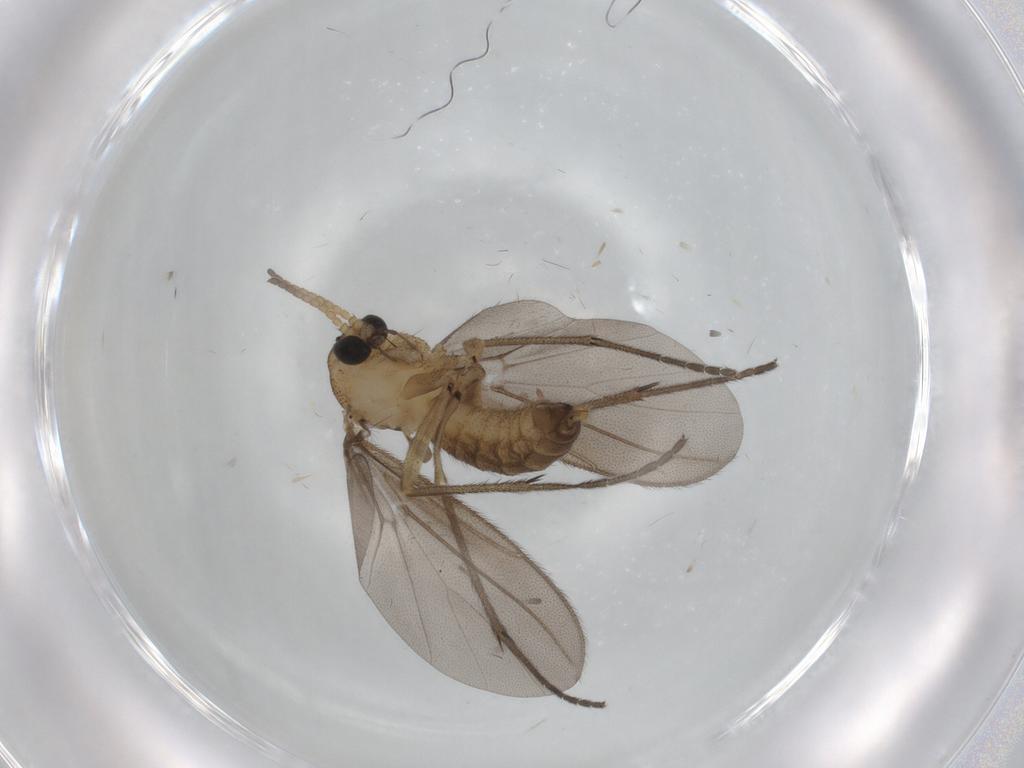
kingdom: Animalia
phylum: Arthropoda
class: Insecta
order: Diptera
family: Diadocidiidae
